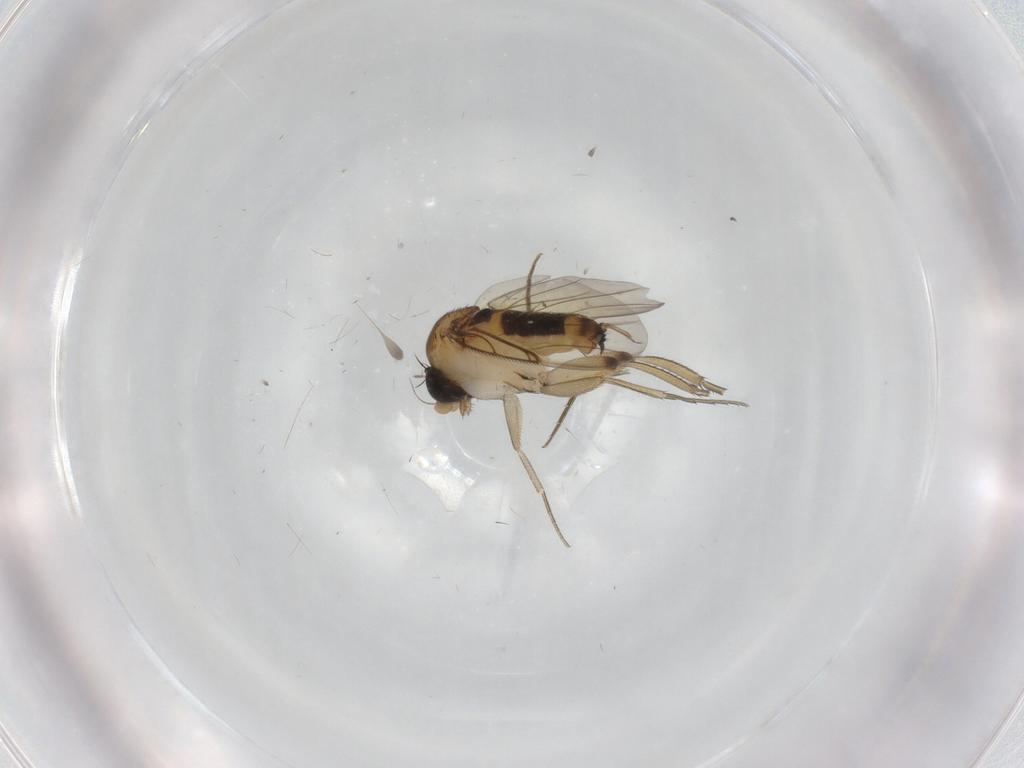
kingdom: Animalia
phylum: Arthropoda
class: Insecta
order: Diptera
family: Phoridae
